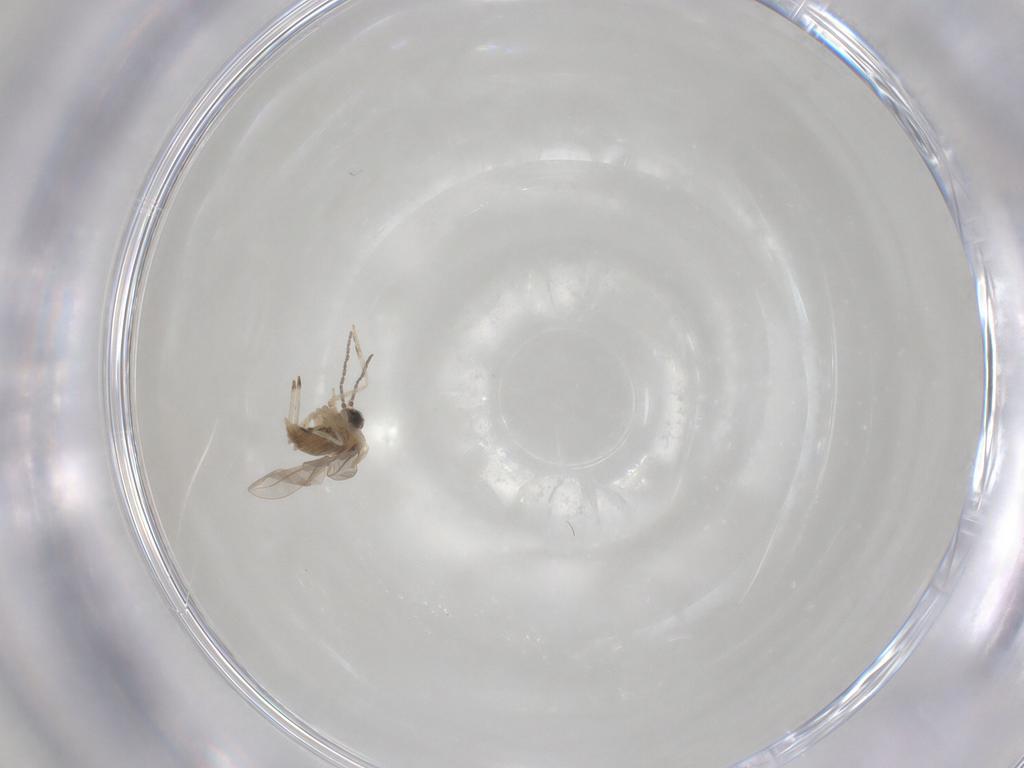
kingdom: Animalia
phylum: Arthropoda
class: Insecta
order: Diptera
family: Cecidomyiidae
